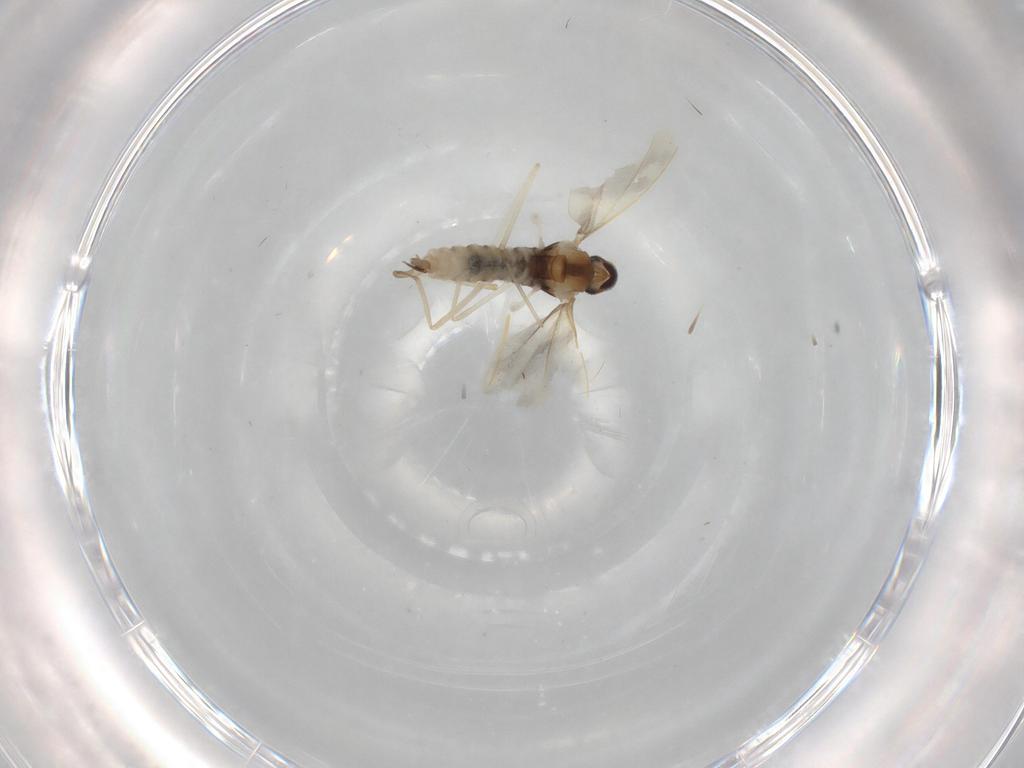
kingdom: Animalia
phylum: Arthropoda
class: Insecta
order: Diptera
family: Cecidomyiidae
